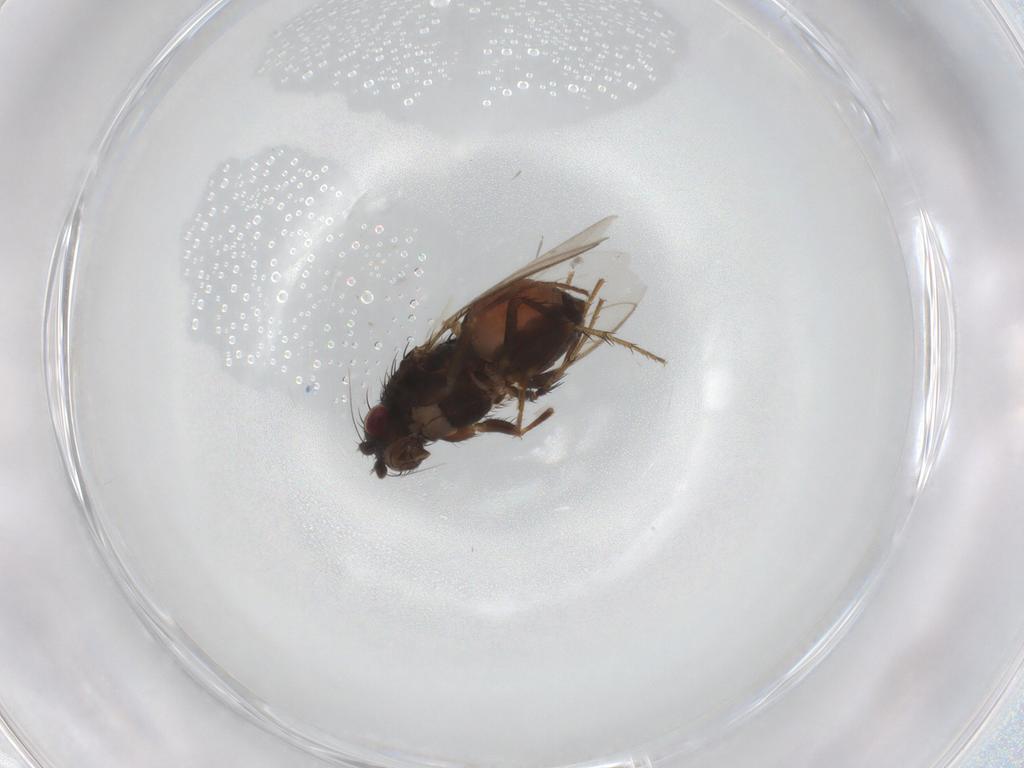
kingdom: Animalia
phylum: Arthropoda
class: Insecta
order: Diptera
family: Sphaeroceridae
